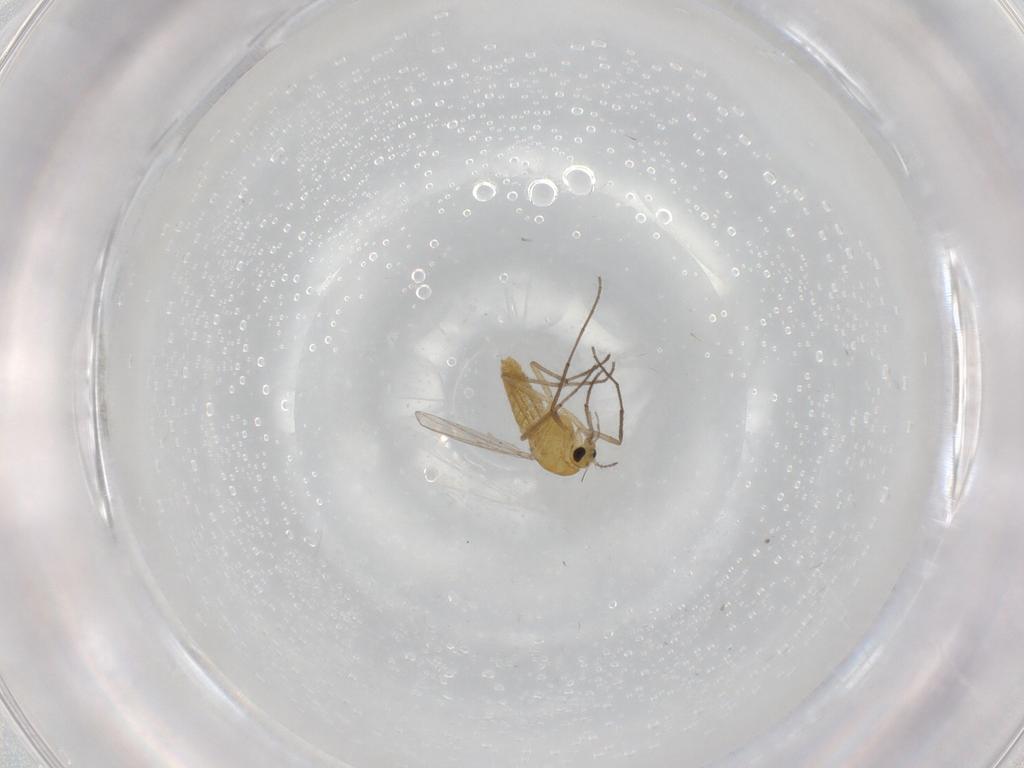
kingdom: Animalia
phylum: Arthropoda
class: Insecta
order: Diptera
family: Chironomidae
